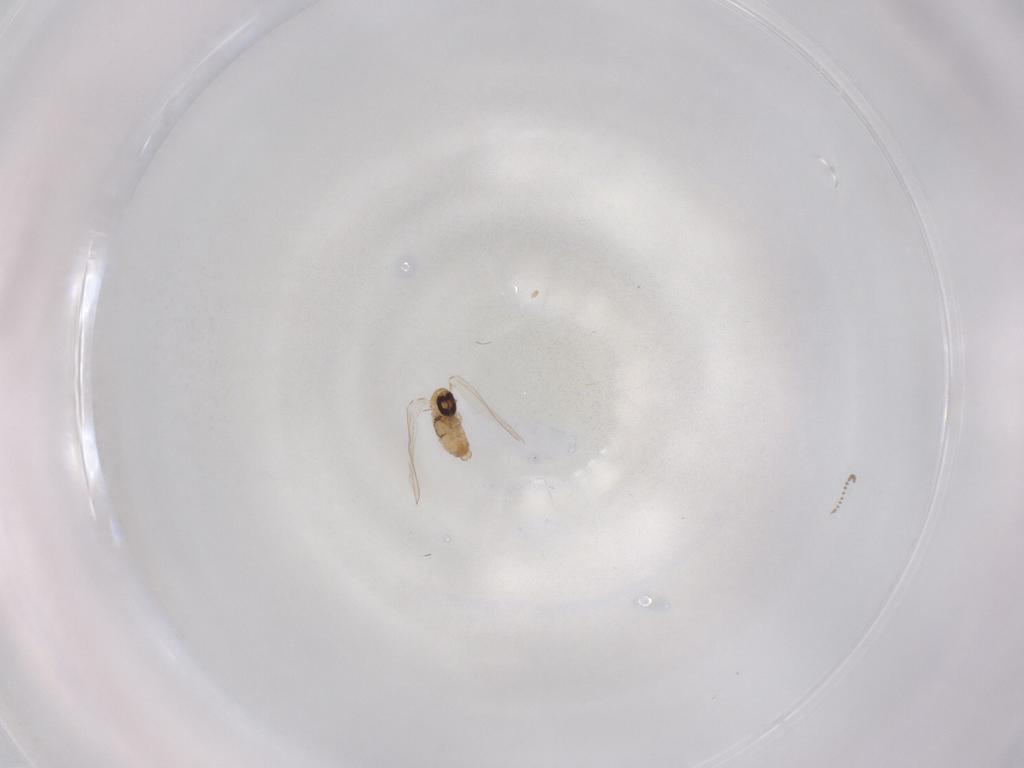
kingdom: Animalia
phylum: Arthropoda
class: Insecta
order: Diptera
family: Psychodidae
